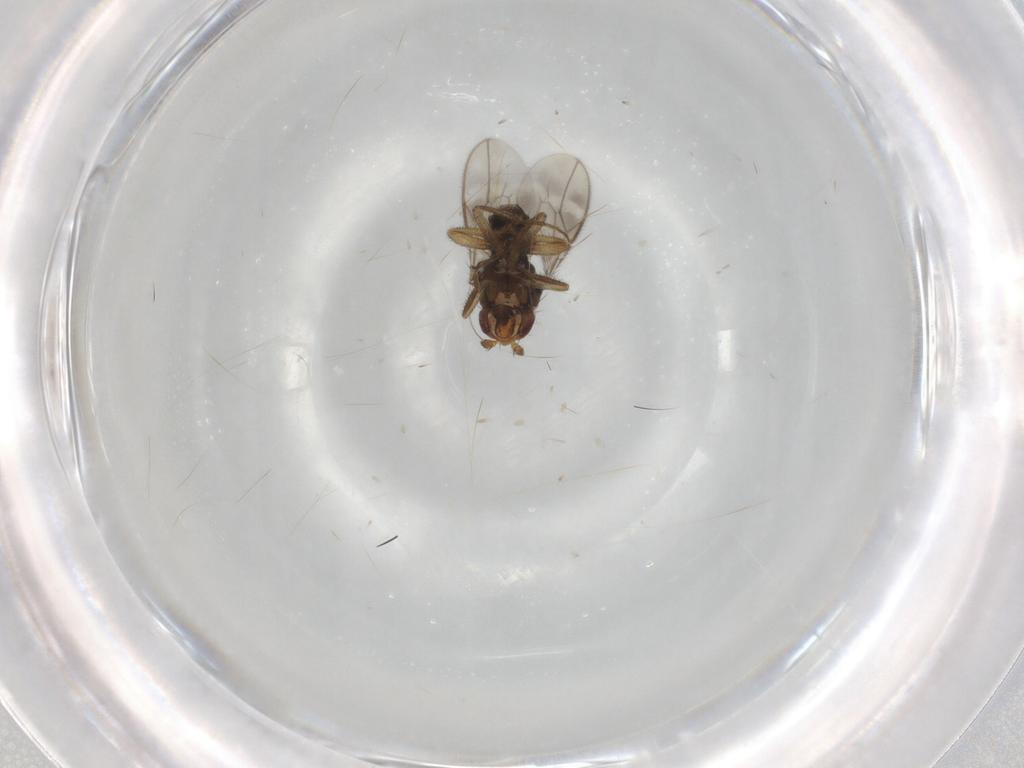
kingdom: Animalia
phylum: Arthropoda
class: Insecta
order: Diptera
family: Sphaeroceridae
